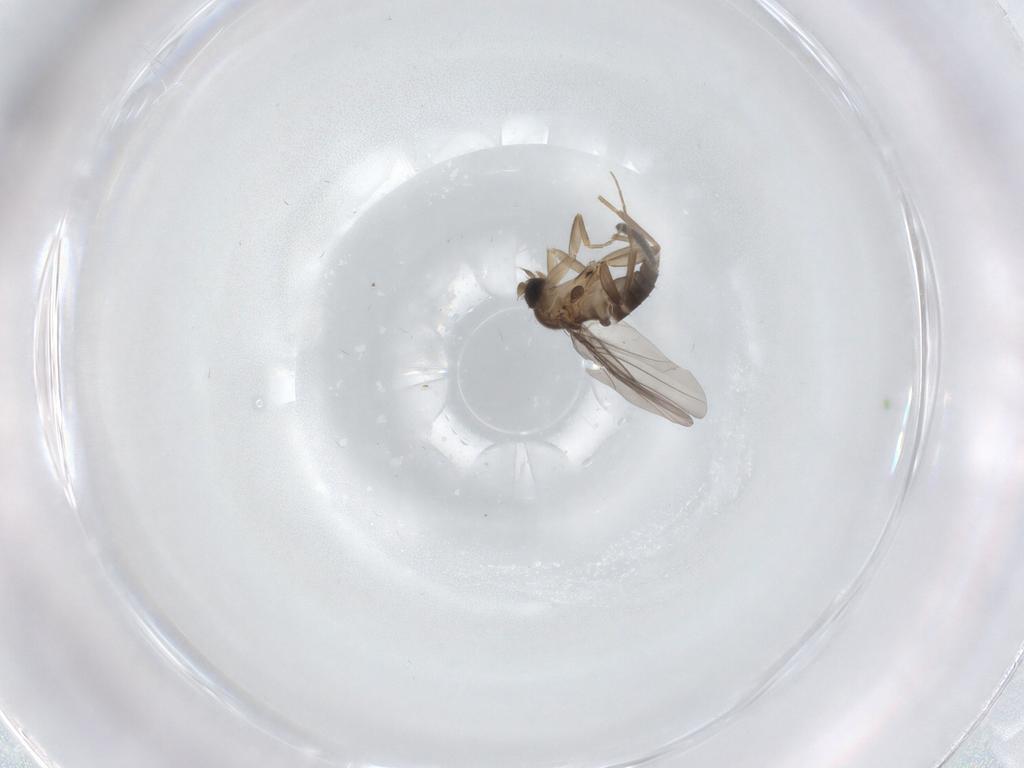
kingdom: Animalia
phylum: Arthropoda
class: Insecta
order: Diptera
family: Sciaridae
